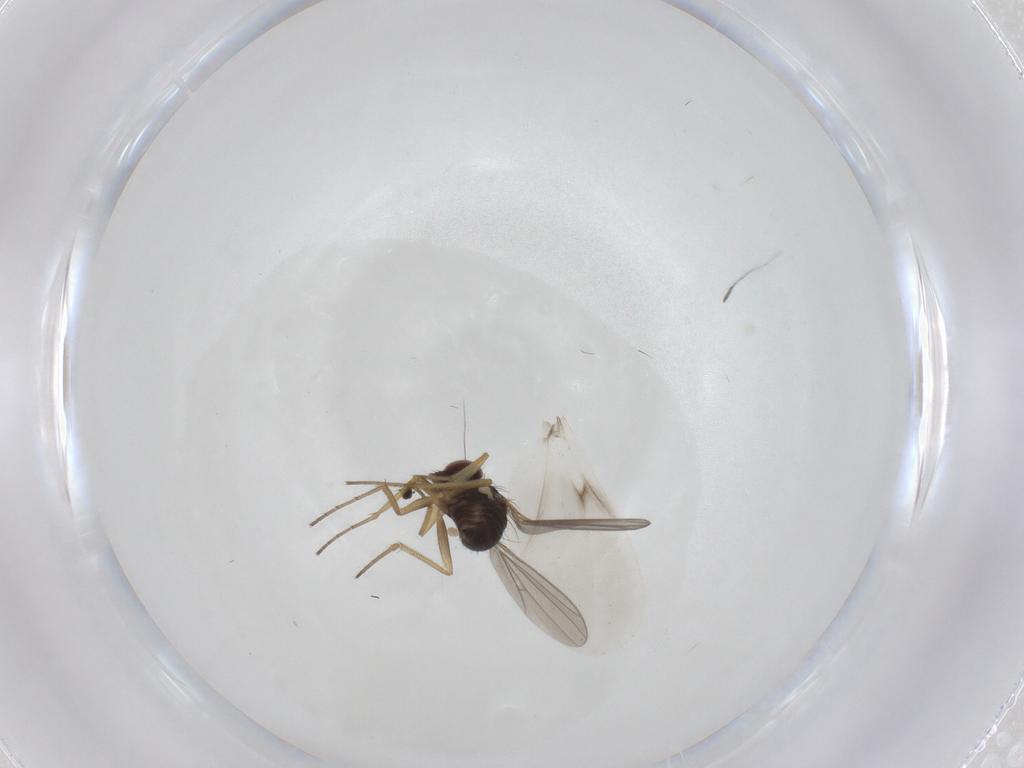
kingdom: Animalia
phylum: Arthropoda
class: Insecta
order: Diptera
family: Dolichopodidae
